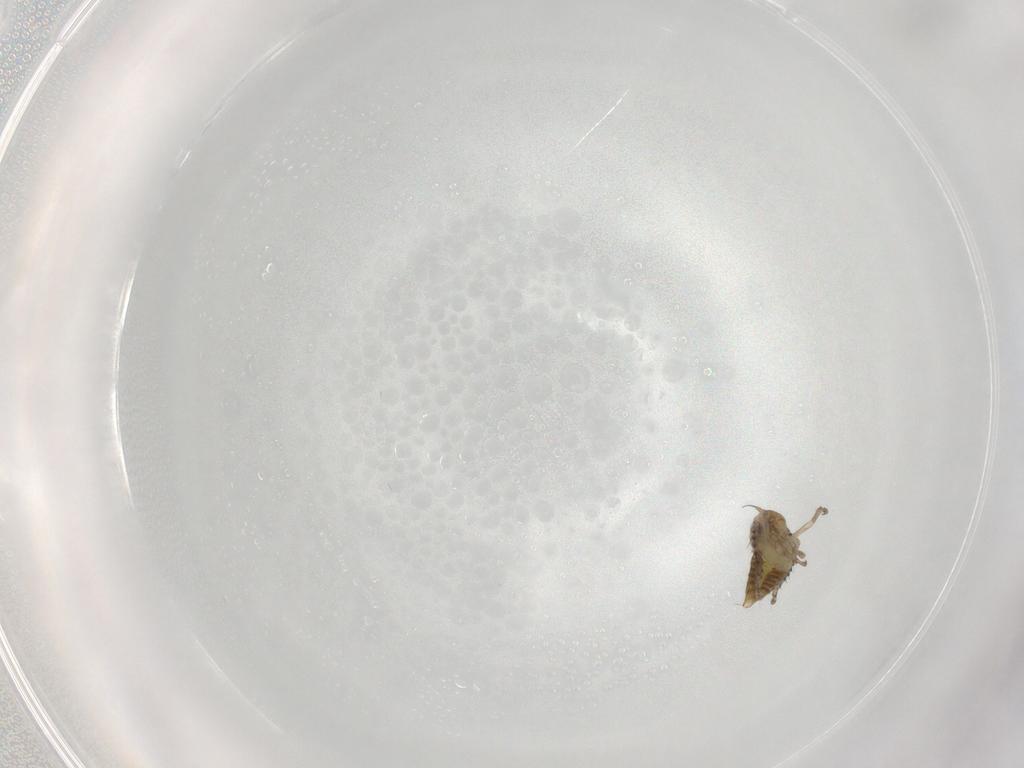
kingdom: Animalia
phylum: Arthropoda
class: Insecta
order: Hemiptera
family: Cicadellidae
